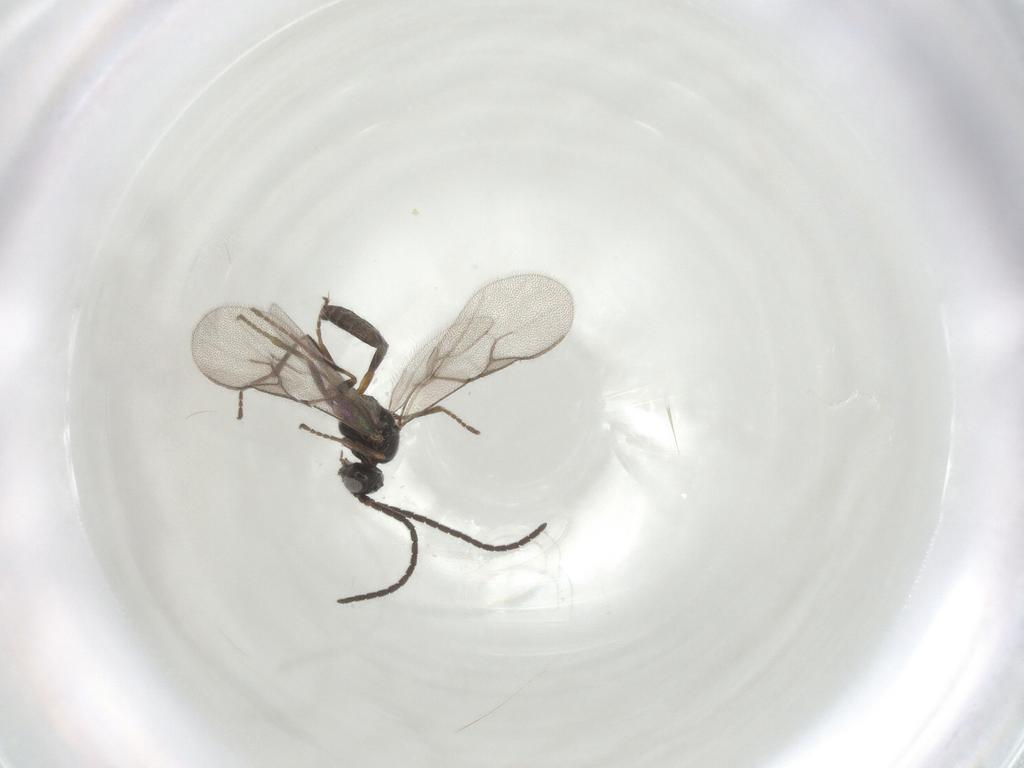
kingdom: Animalia
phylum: Arthropoda
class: Insecta
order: Hymenoptera
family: Braconidae
